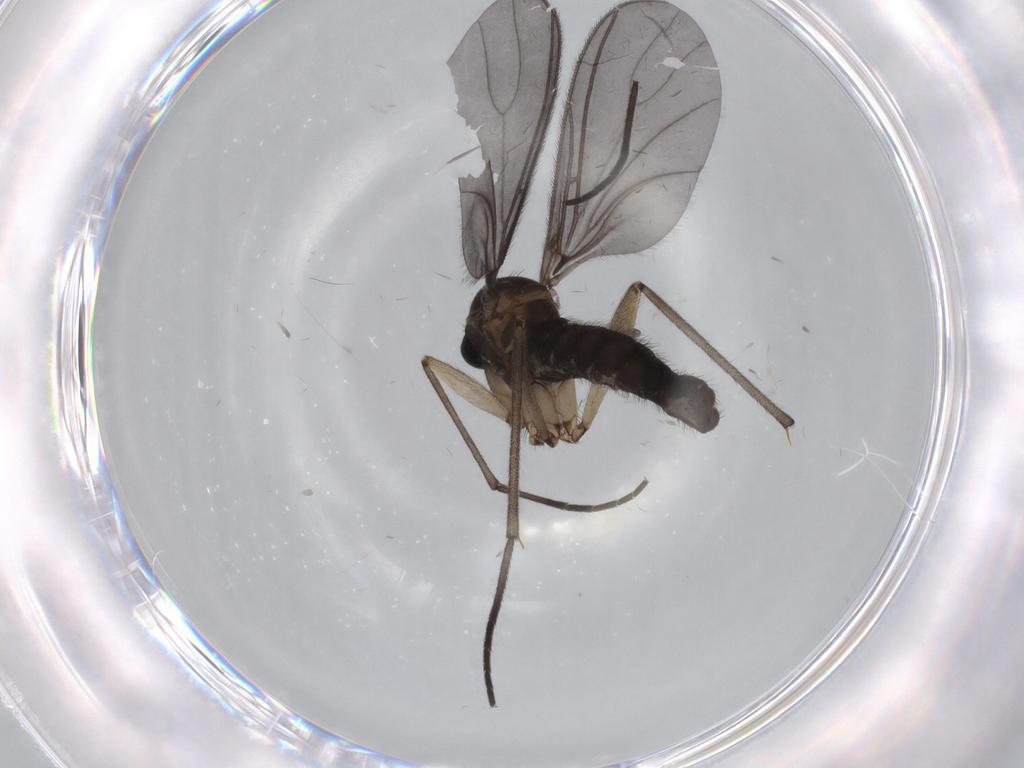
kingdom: Animalia
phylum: Arthropoda
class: Insecta
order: Diptera
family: Sciaridae
